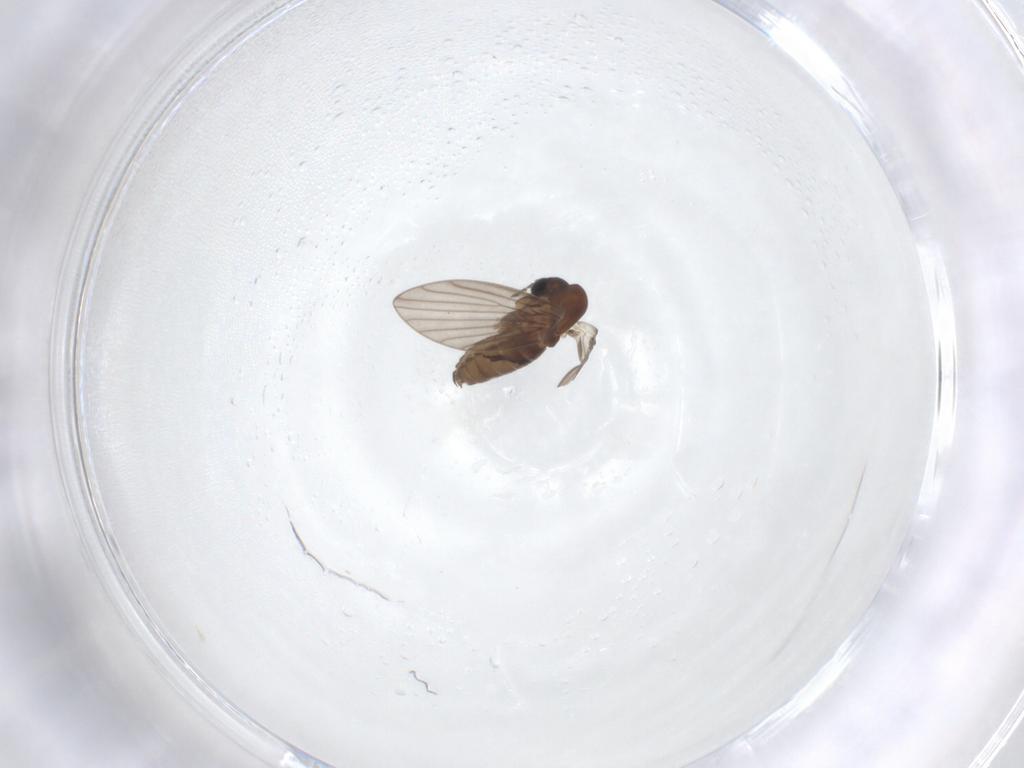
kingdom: Animalia
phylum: Arthropoda
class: Insecta
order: Diptera
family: Psychodidae
